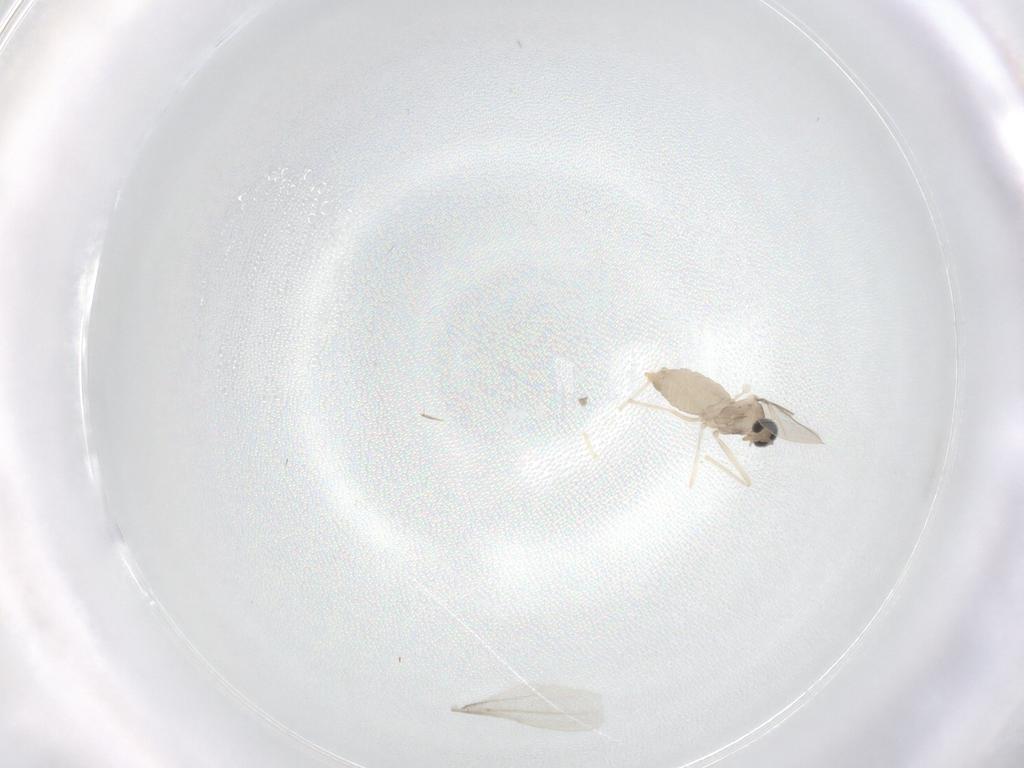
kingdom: Animalia
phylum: Arthropoda
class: Insecta
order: Diptera
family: Cecidomyiidae
